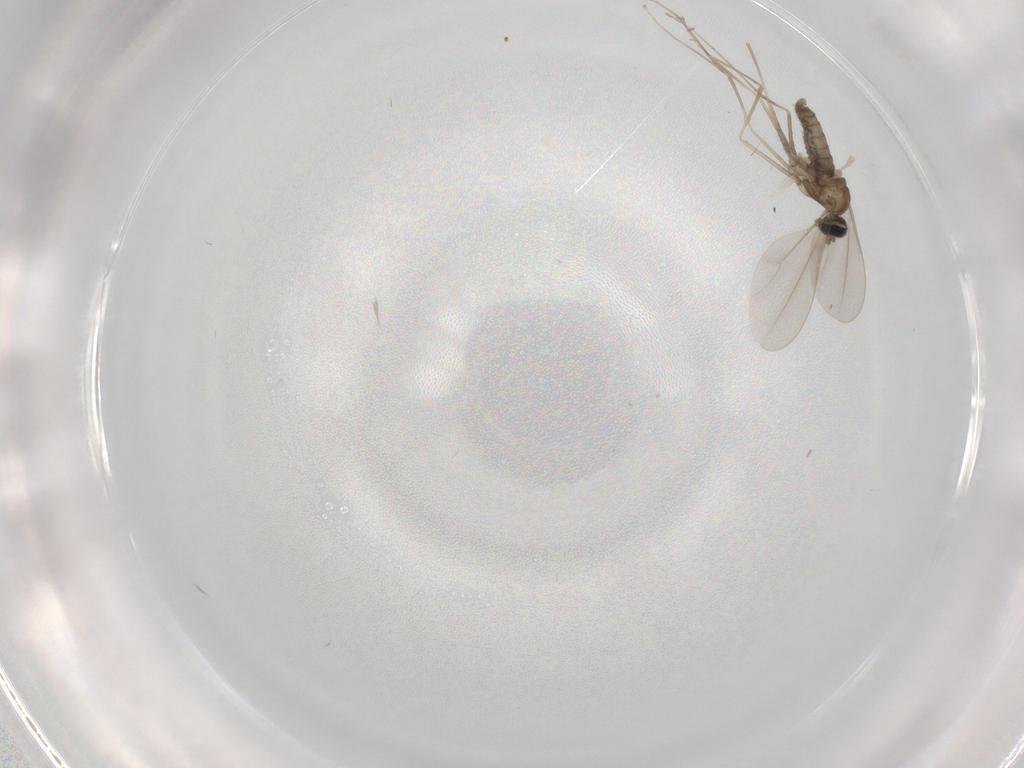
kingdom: Animalia
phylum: Arthropoda
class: Insecta
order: Diptera
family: Cecidomyiidae
